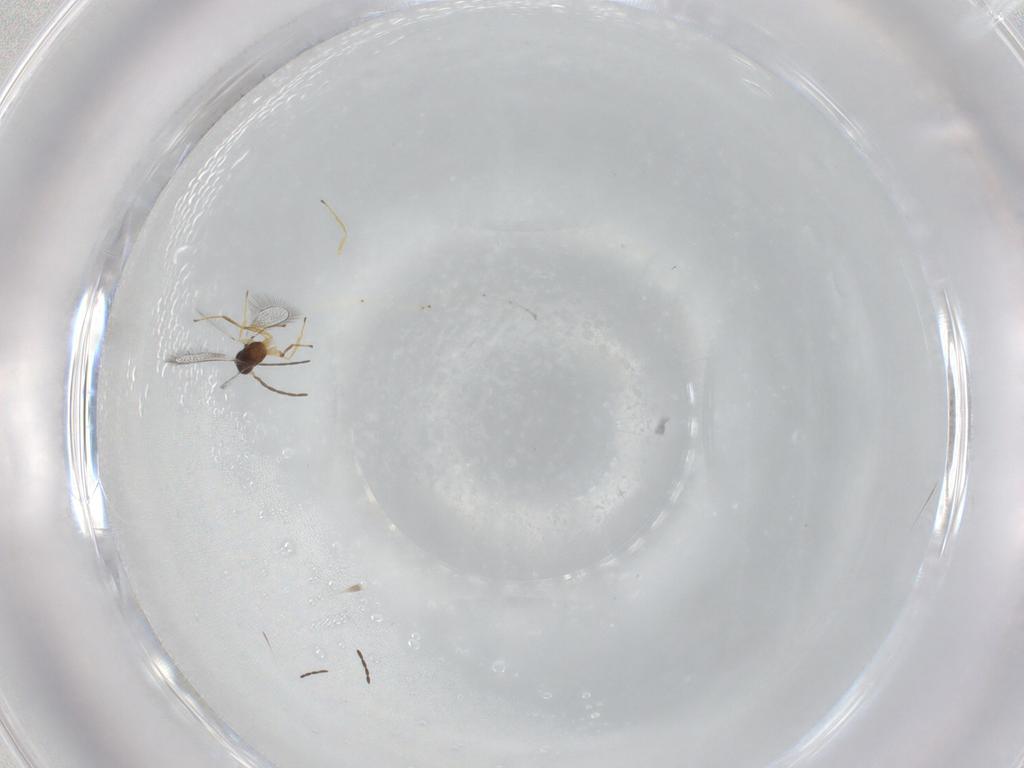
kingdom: Animalia
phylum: Arthropoda
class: Insecta
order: Hymenoptera
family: Mymaridae
